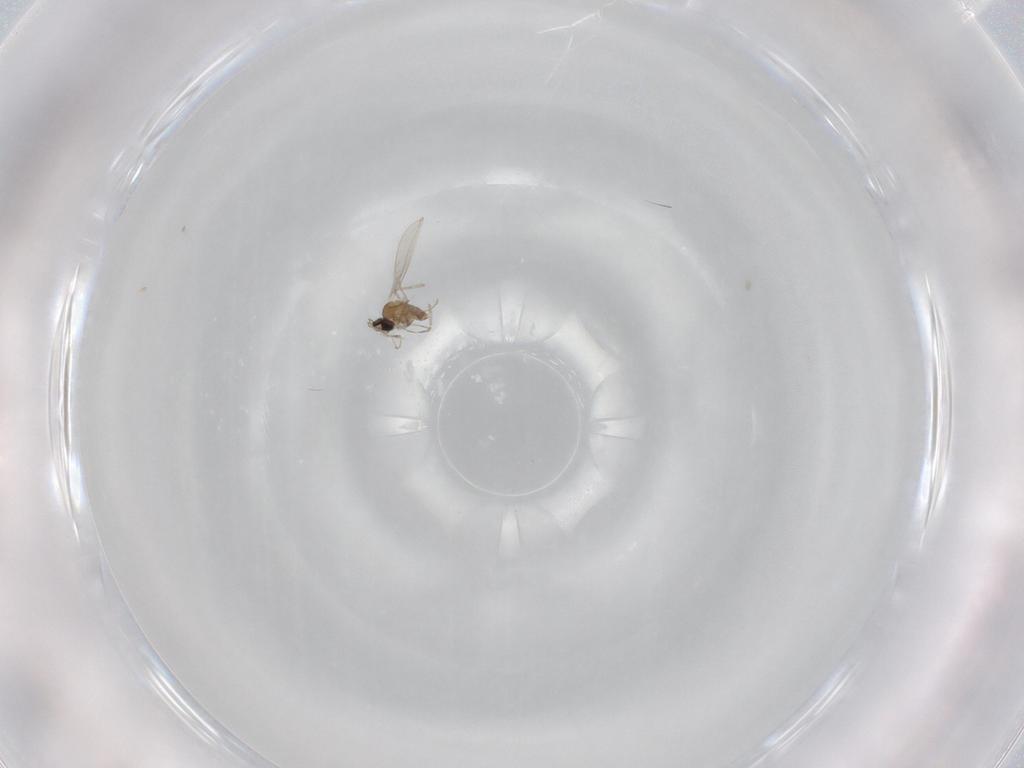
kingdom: Animalia
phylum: Arthropoda
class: Insecta
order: Diptera
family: Limoniidae
